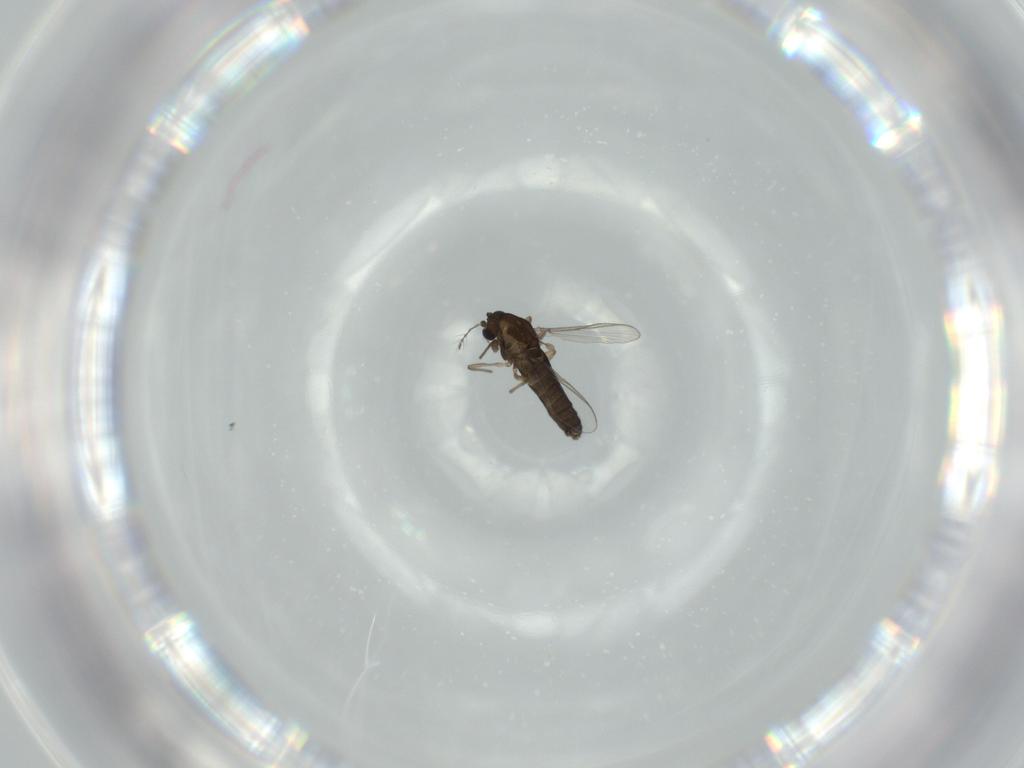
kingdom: Animalia
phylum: Arthropoda
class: Insecta
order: Diptera
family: Chironomidae
